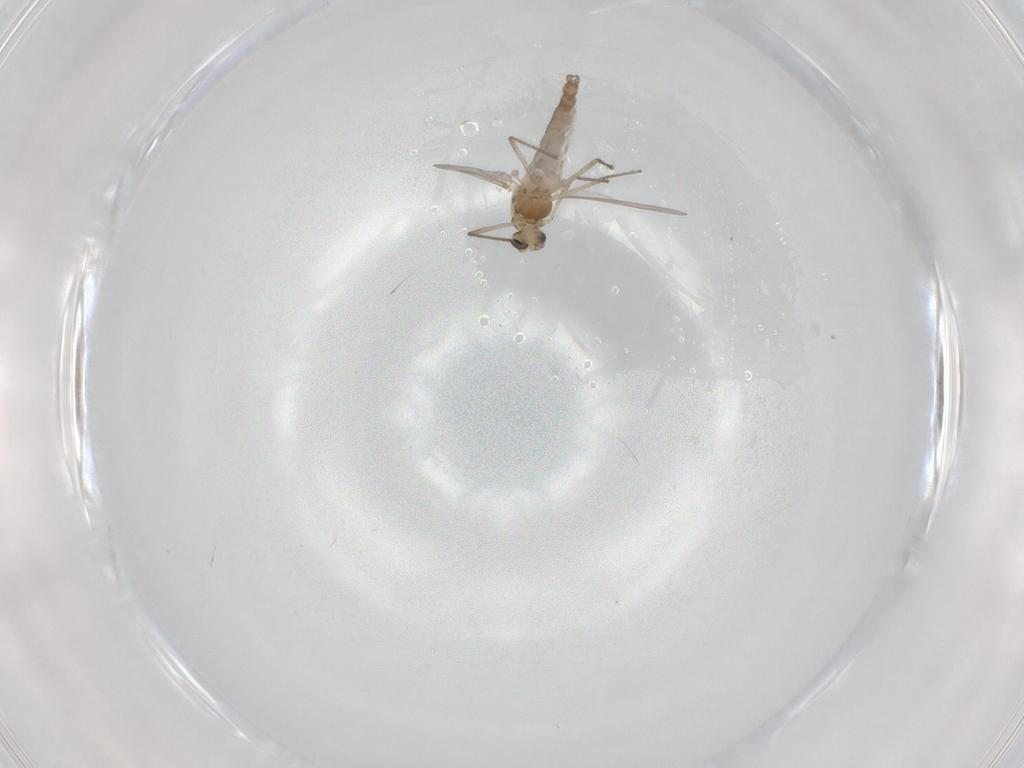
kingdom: Animalia
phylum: Arthropoda
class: Insecta
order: Diptera
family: Chironomidae
